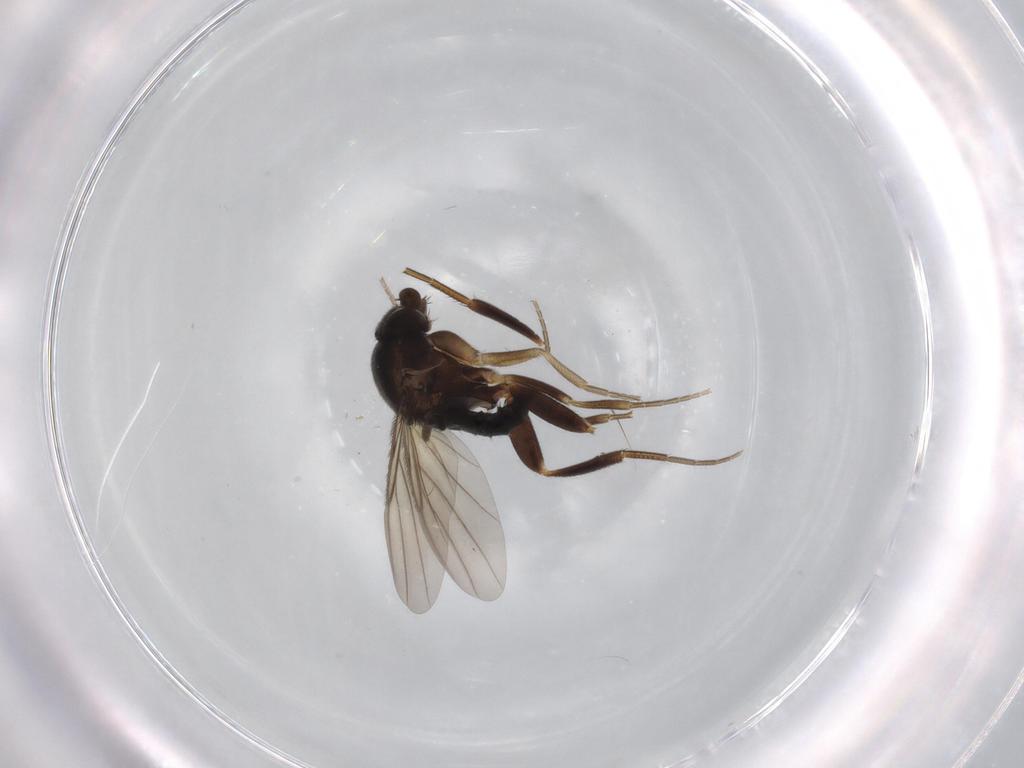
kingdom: Animalia
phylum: Arthropoda
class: Insecta
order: Diptera
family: Phoridae
